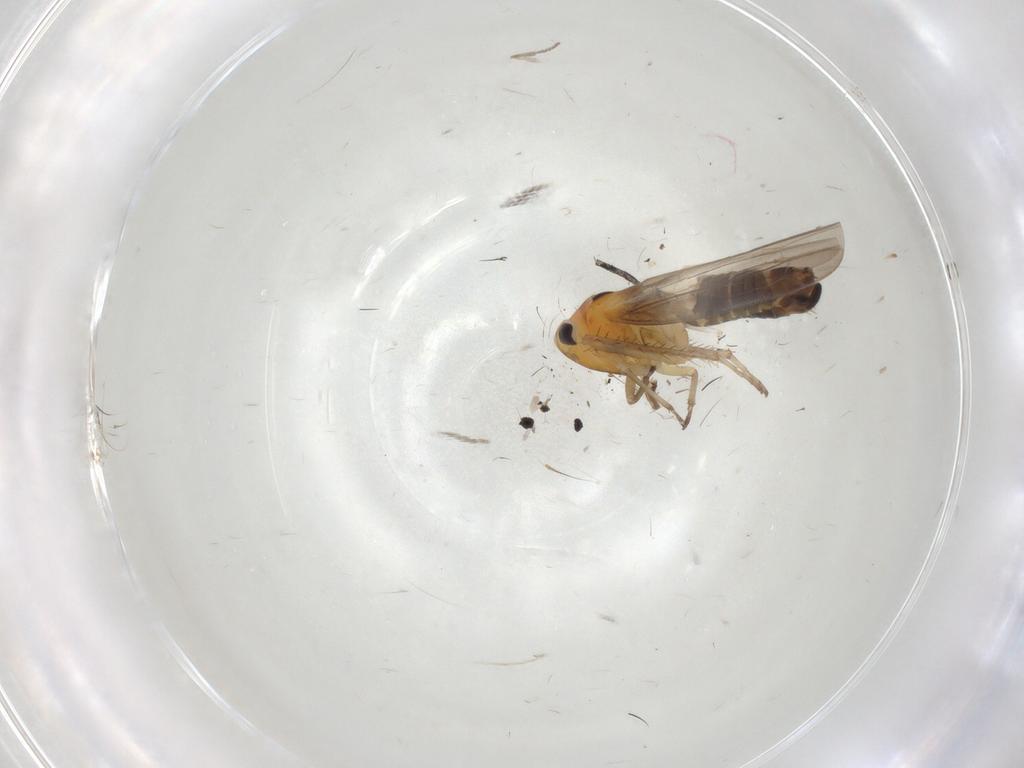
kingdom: Animalia
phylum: Arthropoda
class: Insecta
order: Hemiptera
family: Cicadellidae
